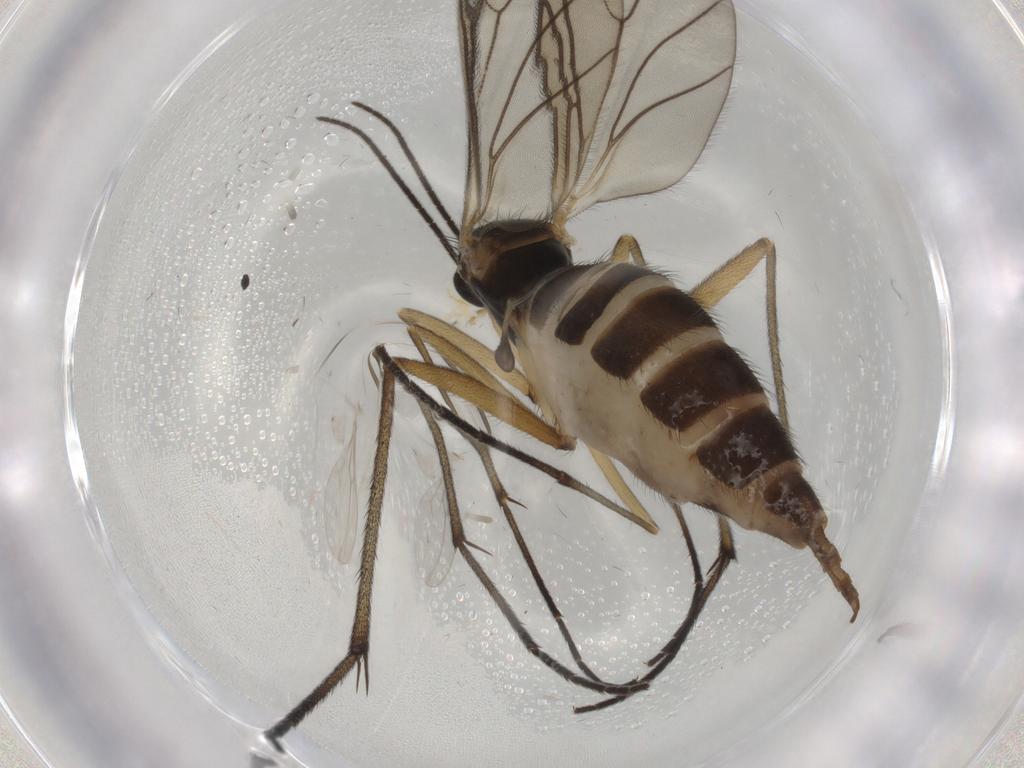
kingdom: Animalia
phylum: Arthropoda
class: Insecta
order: Diptera
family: Sciaridae
